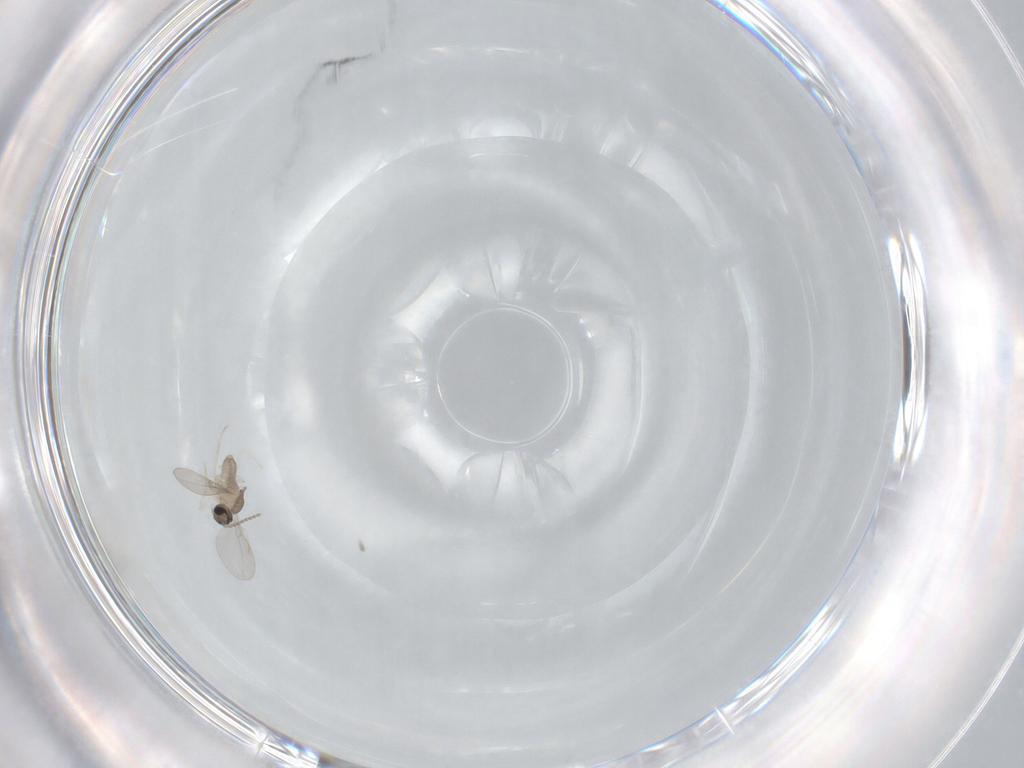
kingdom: Animalia
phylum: Arthropoda
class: Insecta
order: Diptera
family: Cecidomyiidae
